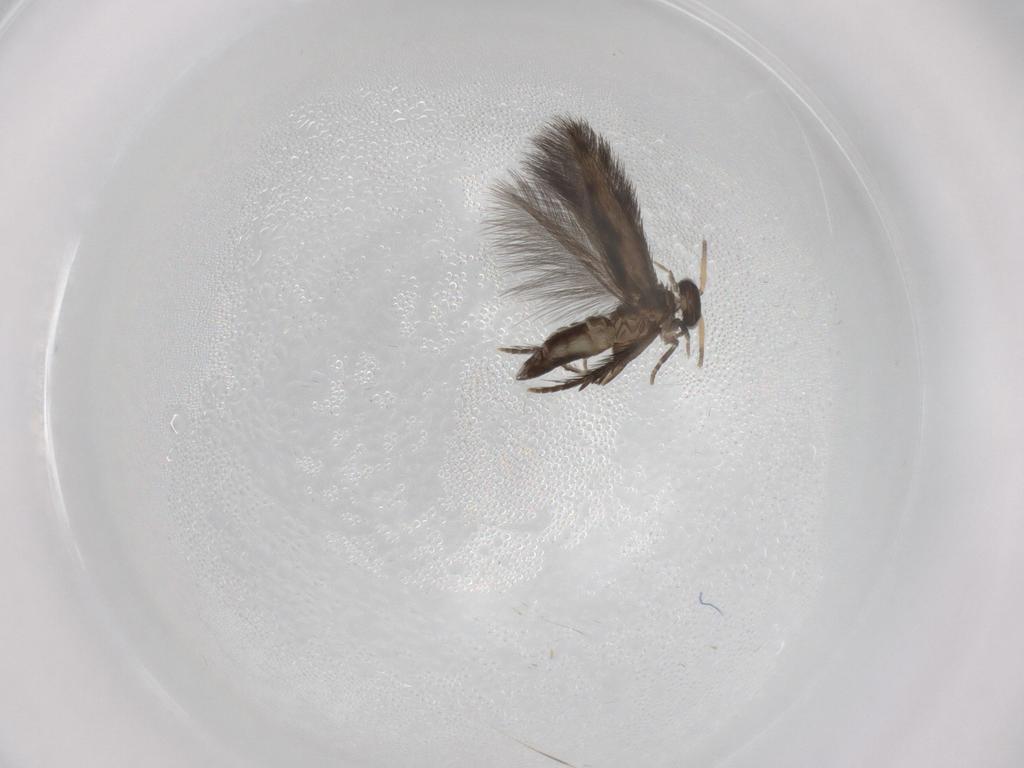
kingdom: Animalia
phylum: Arthropoda
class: Insecta
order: Trichoptera
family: Hydroptilidae
